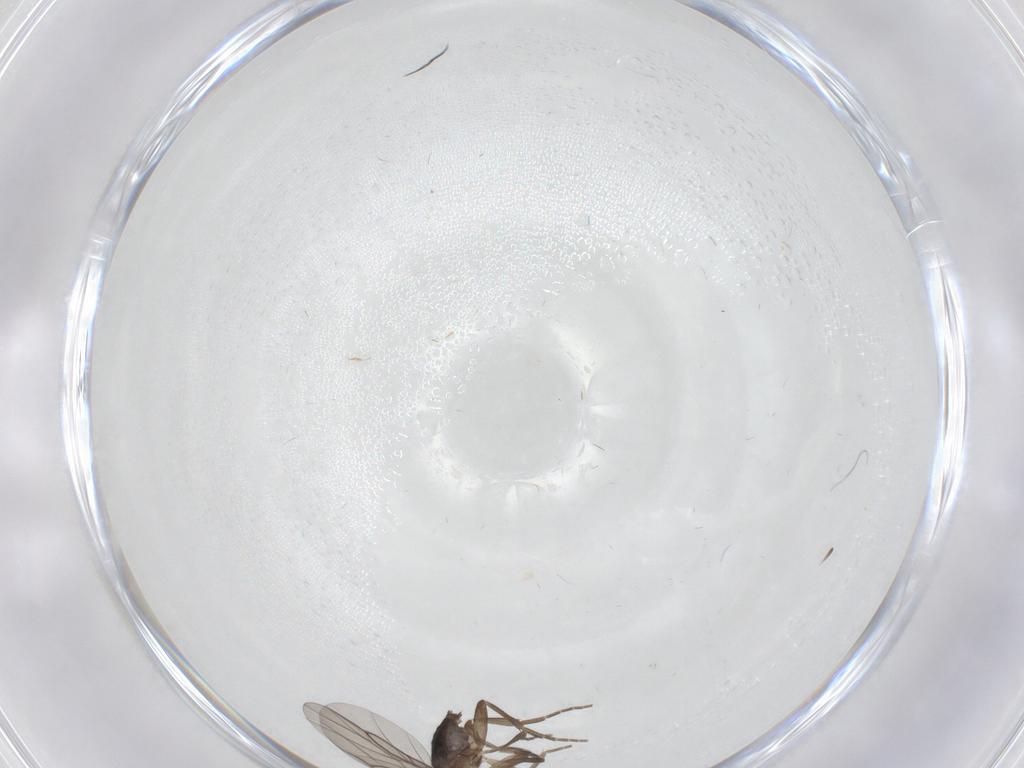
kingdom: Animalia
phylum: Arthropoda
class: Insecta
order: Diptera
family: Ceratopogonidae
